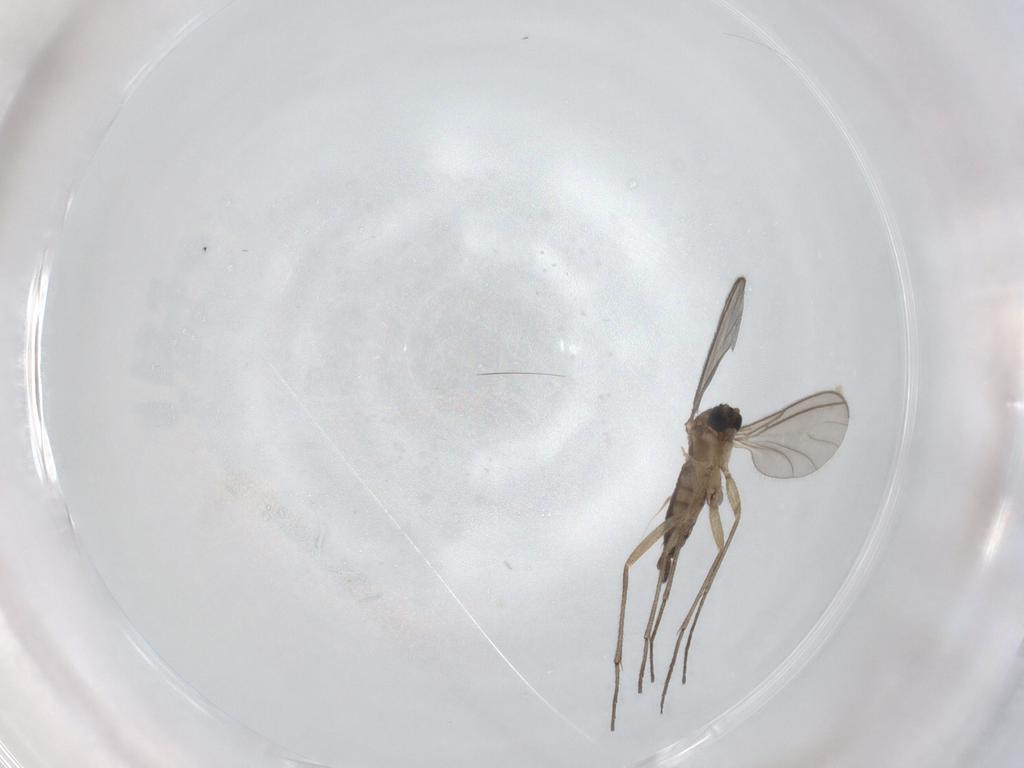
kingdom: Animalia
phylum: Arthropoda
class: Insecta
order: Diptera
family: Sciaridae
